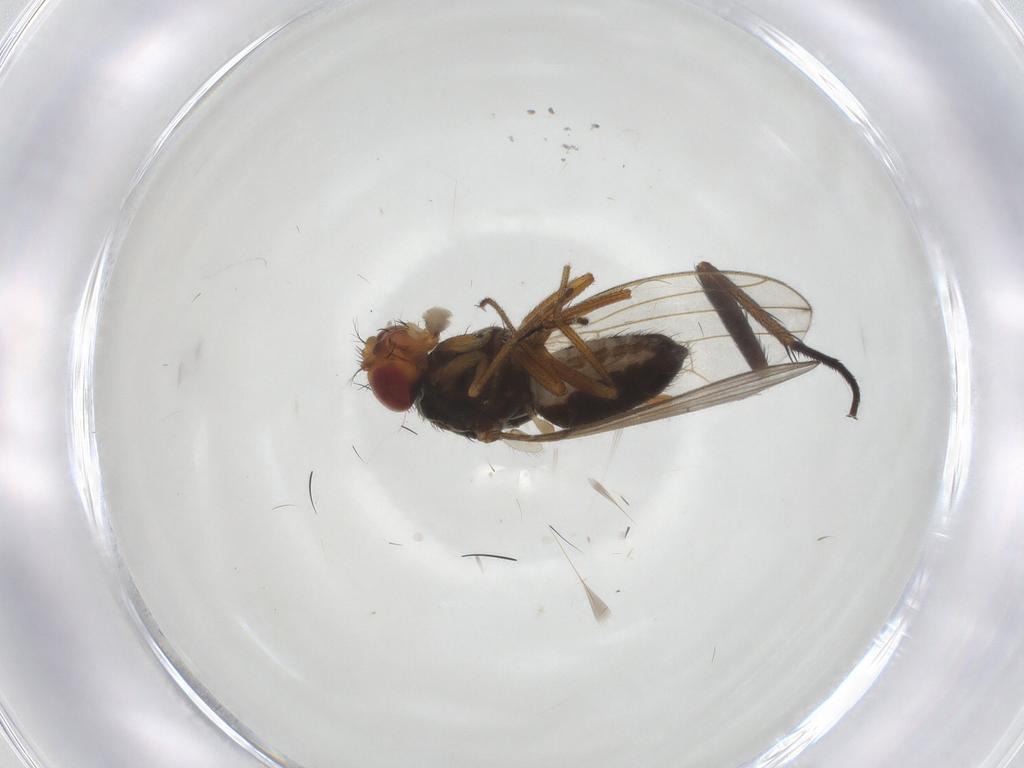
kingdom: Animalia
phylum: Arthropoda
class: Insecta
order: Diptera
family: Drosophilidae
